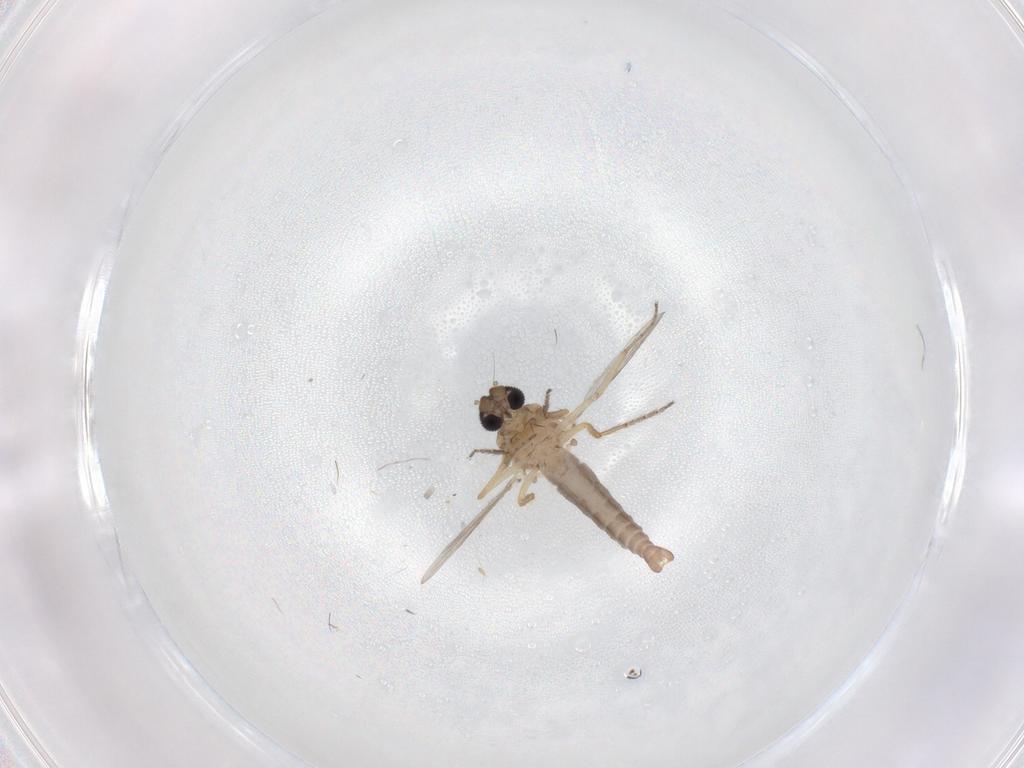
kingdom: Animalia
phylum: Arthropoda
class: Insecta
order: Diptera
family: Ceratopogonidae
